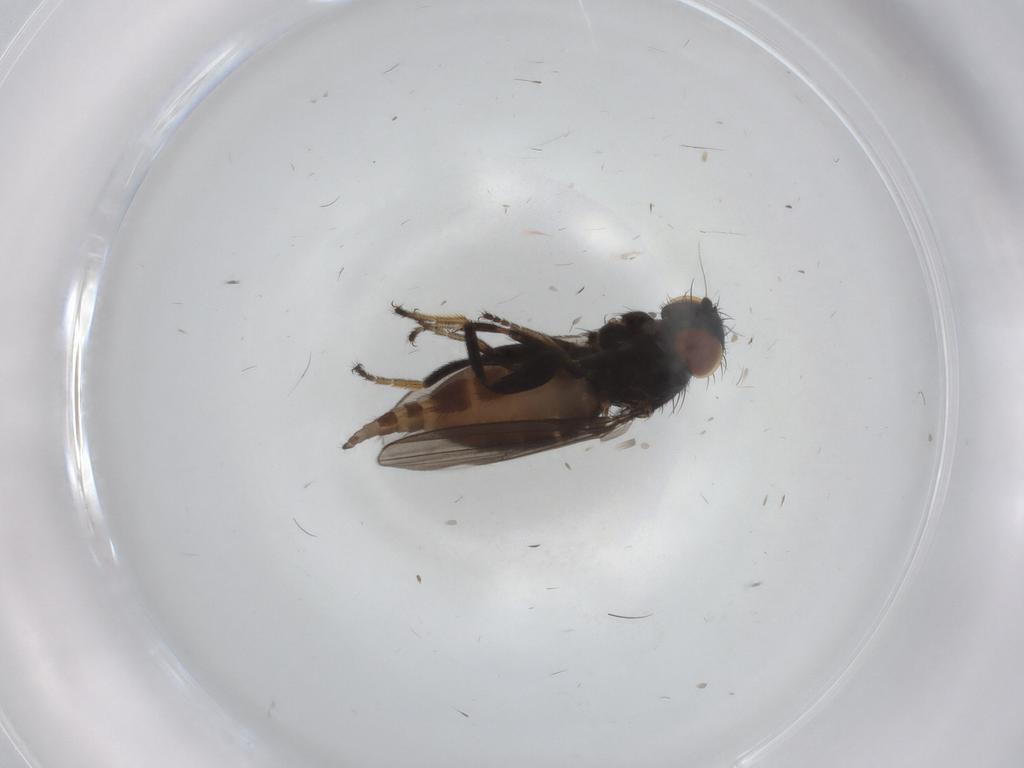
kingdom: Animalia
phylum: Arthropoda
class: Insecta
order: Diptera
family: Milichiidae
